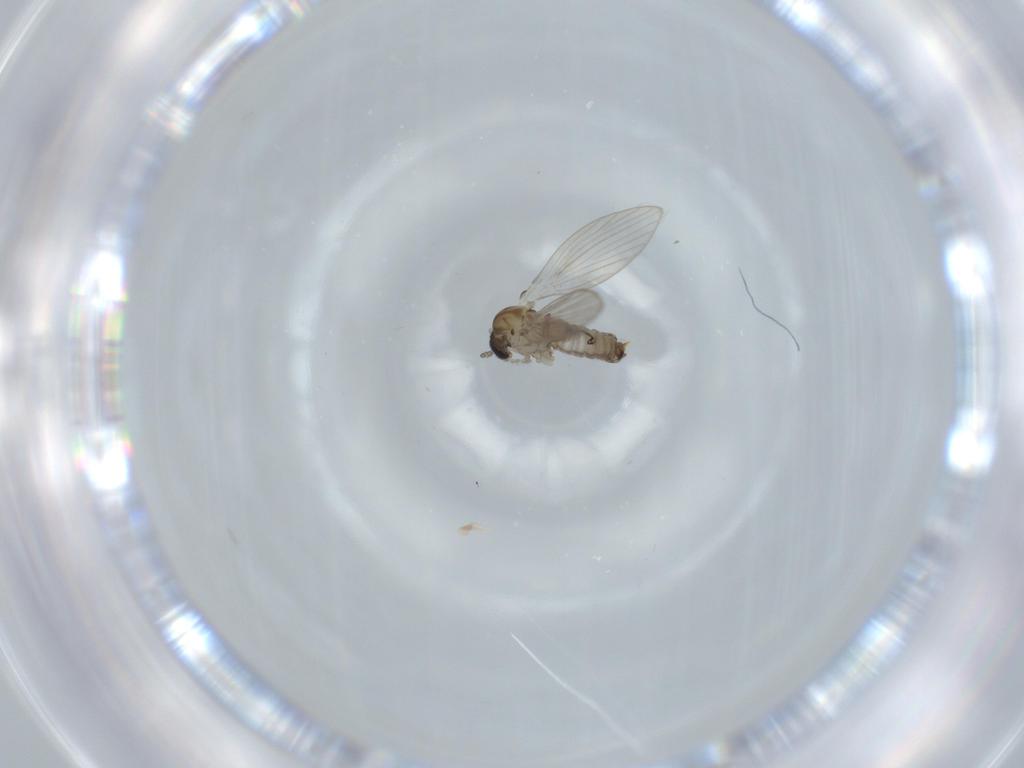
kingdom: Animalia
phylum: Arthropoda
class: Insecta
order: Diptera
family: Psychodidae
